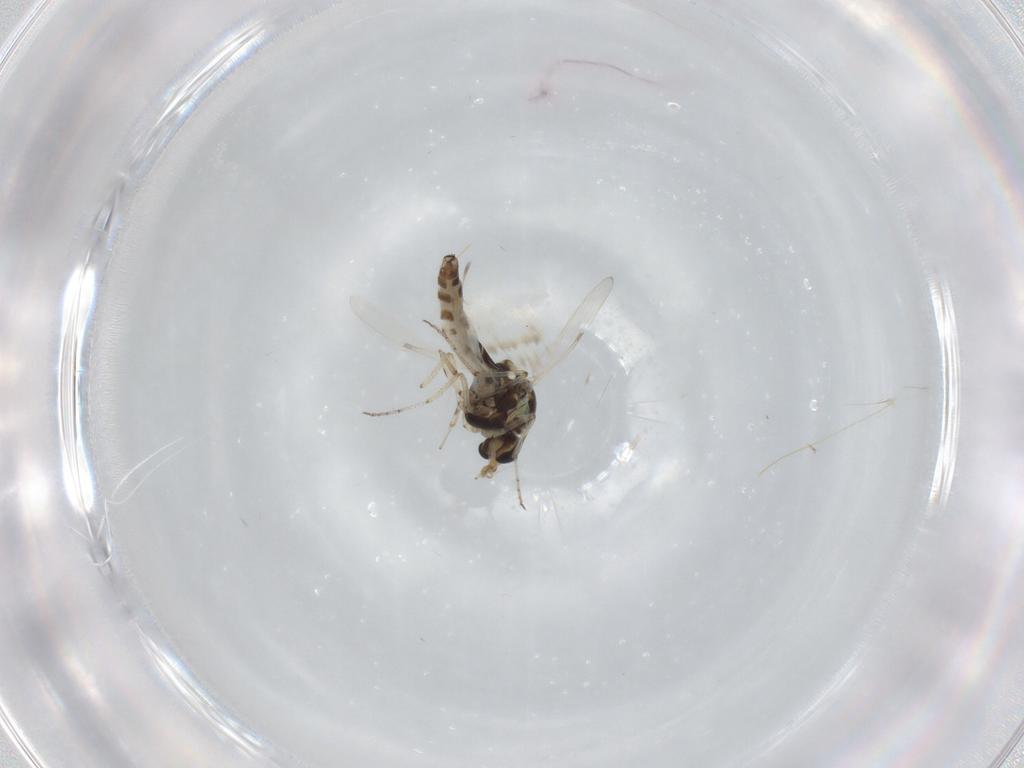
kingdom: Animalia
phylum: Arthropoda
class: Insecta
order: Diptera
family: Ceratopogonidae
